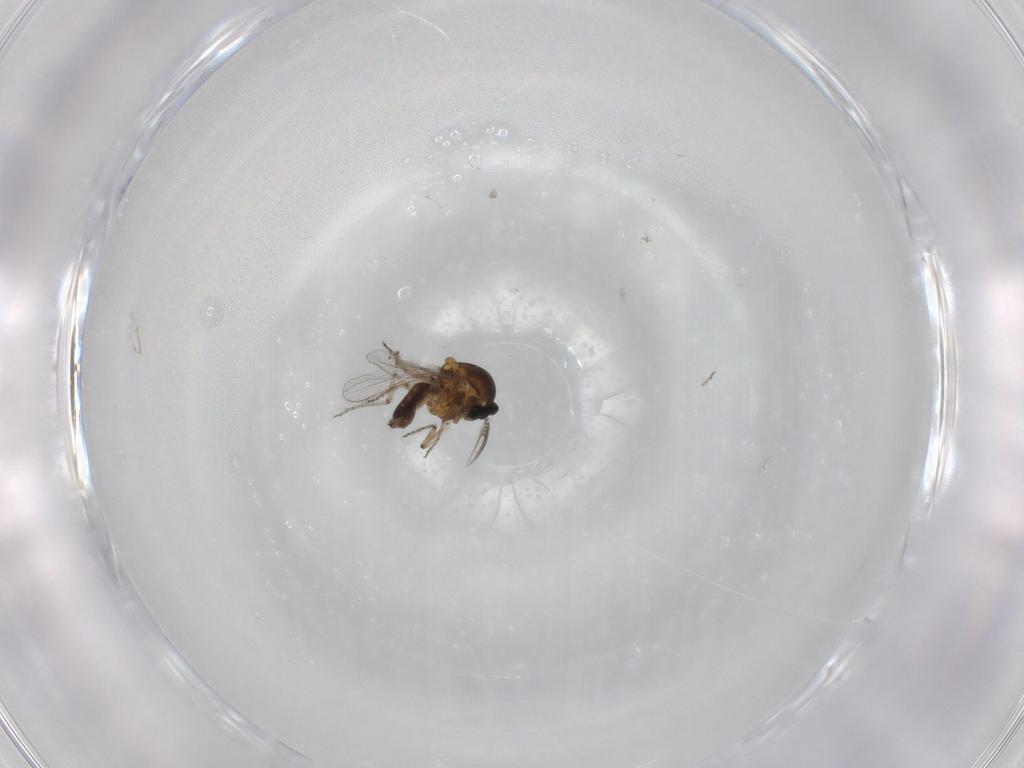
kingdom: Animalia
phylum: Arthropoda
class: Insecta
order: Diptera
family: Ceratopogonidae
